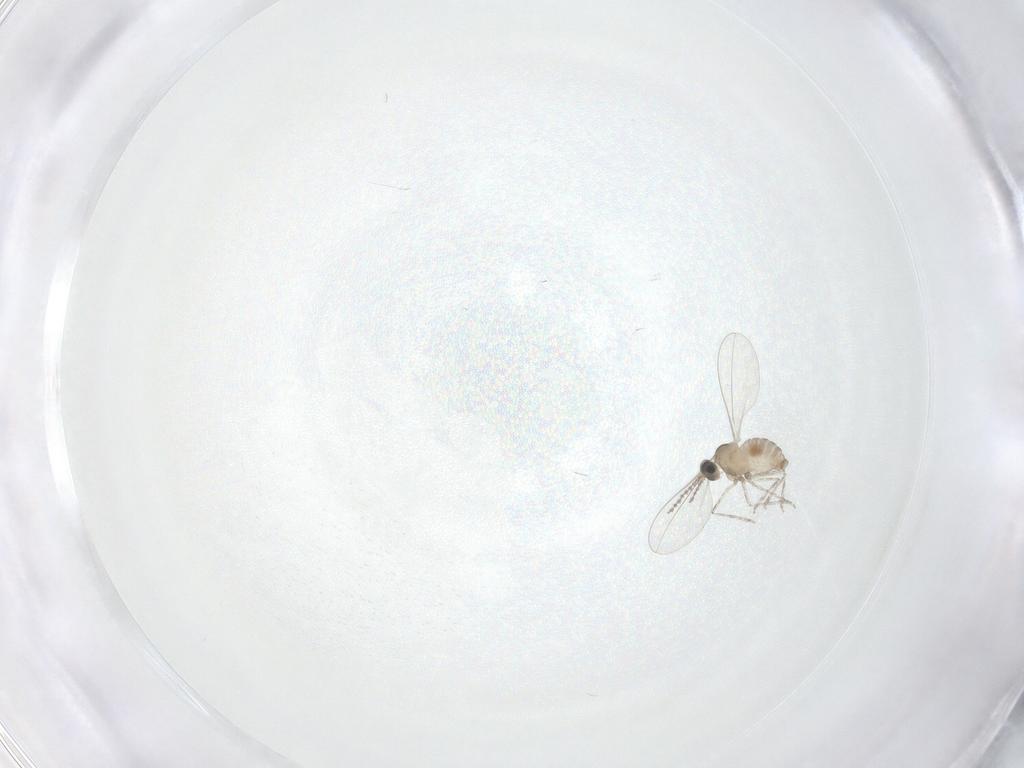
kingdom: Animalia
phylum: Arthropoda
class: Insecta
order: Diptera
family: Cecidomyiidae
